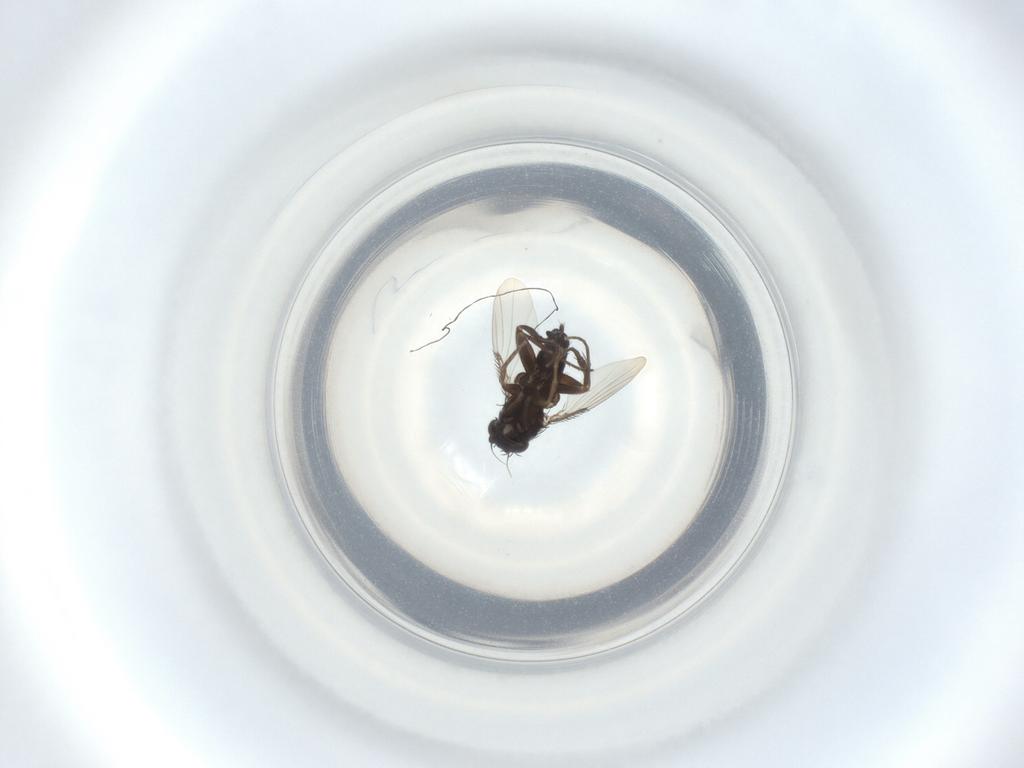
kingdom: Animalia
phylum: Arthropoda
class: Insecta
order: Diptera
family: Phoridae
